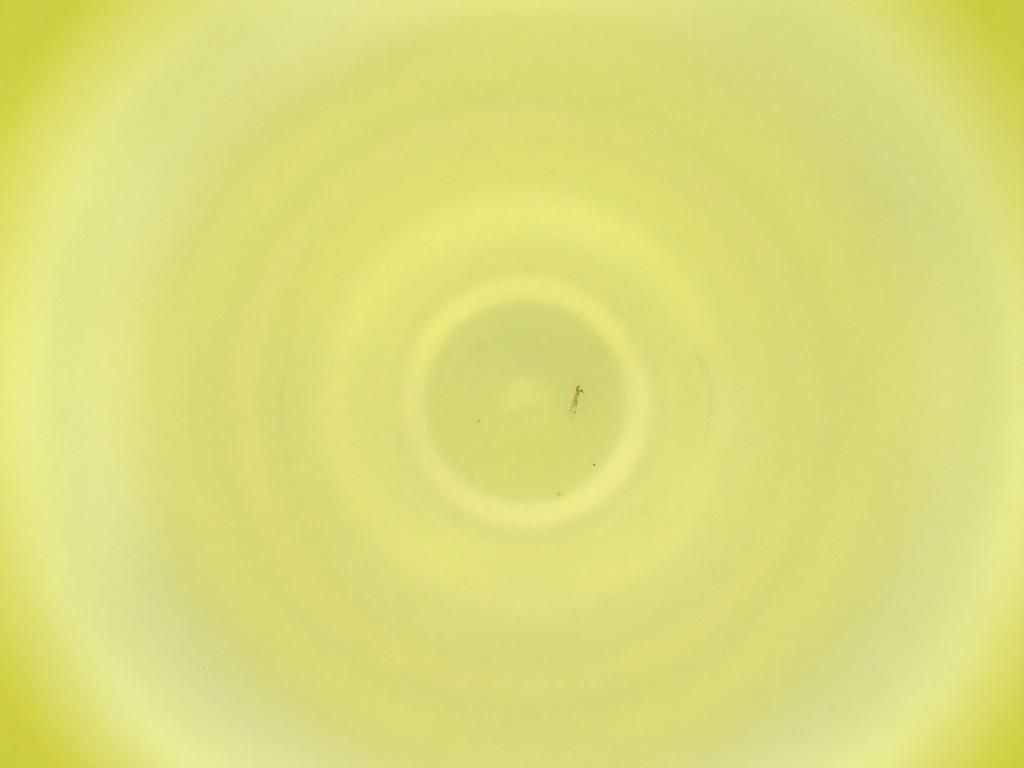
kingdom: Animalia
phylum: Arthropoda
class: Insecta
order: Diptera
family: Cecidomyiidae
